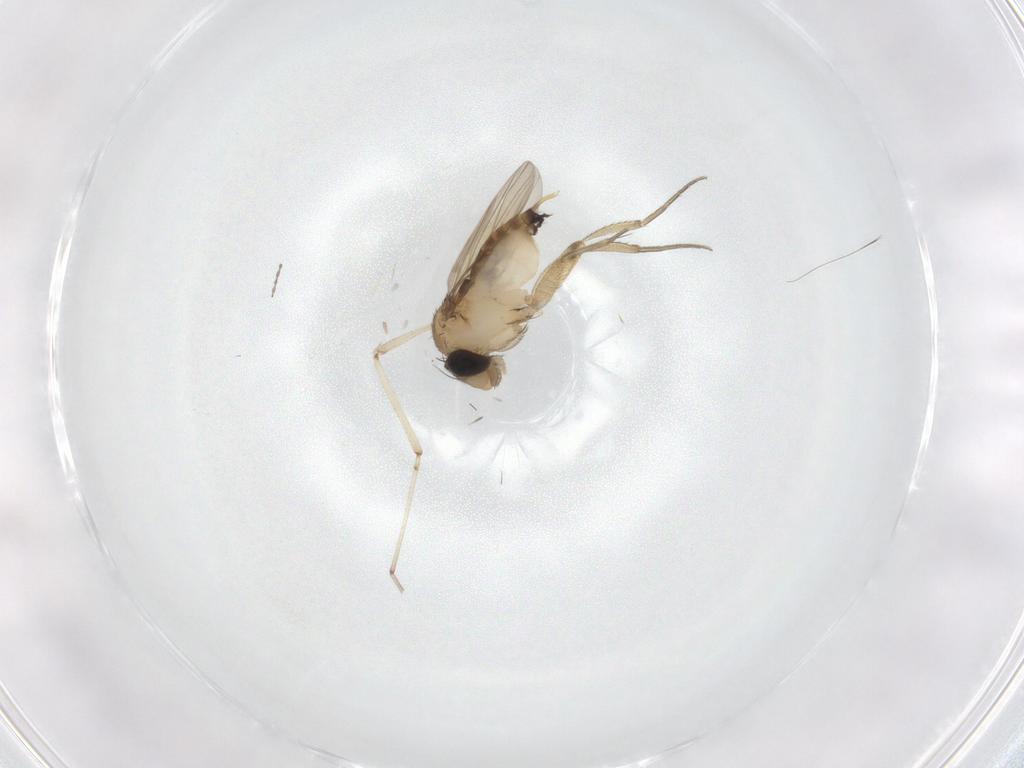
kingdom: Animalia
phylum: Arthropoda
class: Insecta
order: Diptera
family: Phoridae
